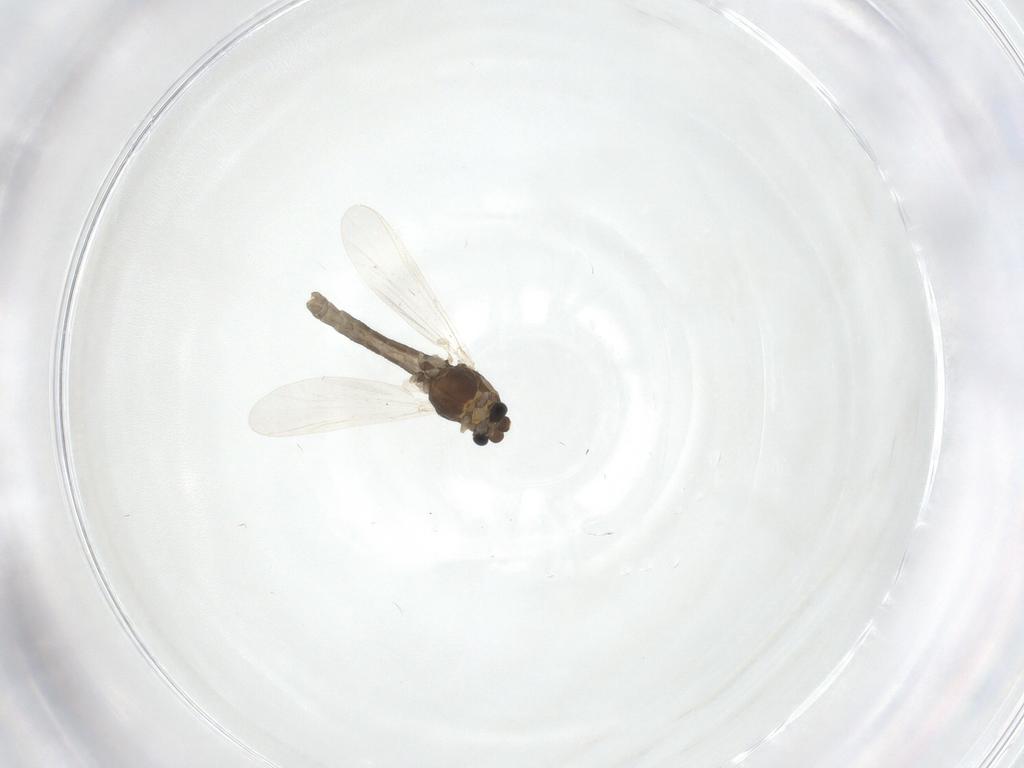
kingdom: Animalia
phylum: Arthropoda
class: Insecta
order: Diptera
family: Chironomidae
